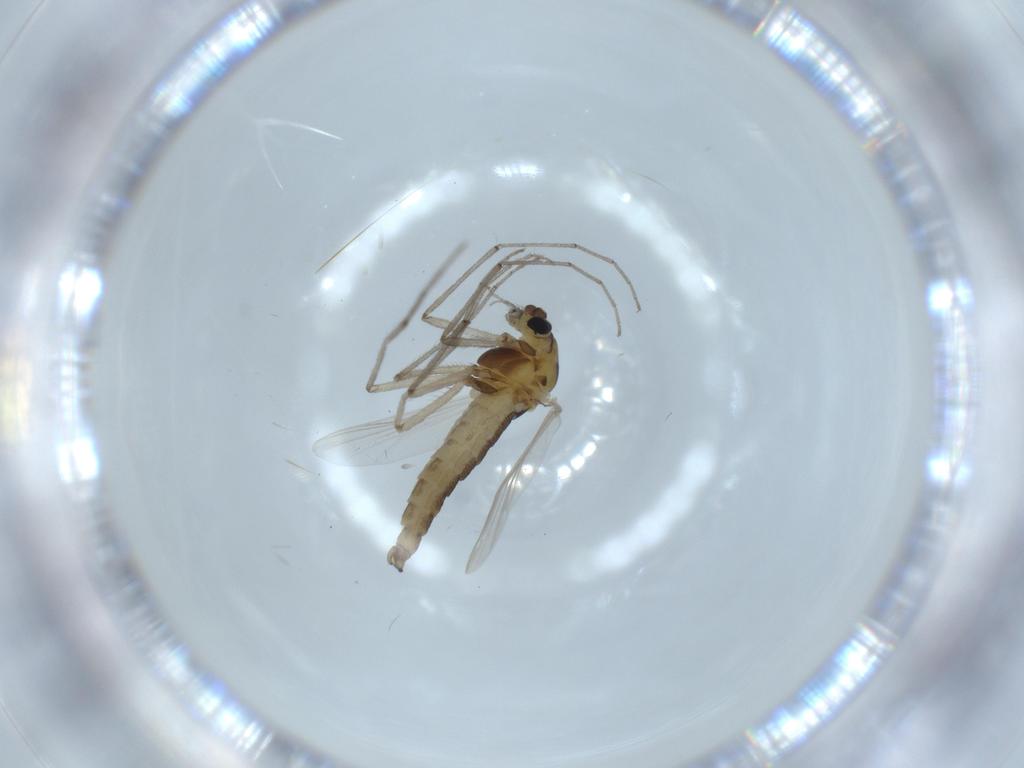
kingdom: Animalia
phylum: Arthropoda
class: Insecta
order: Diptera
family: Chironomidae
